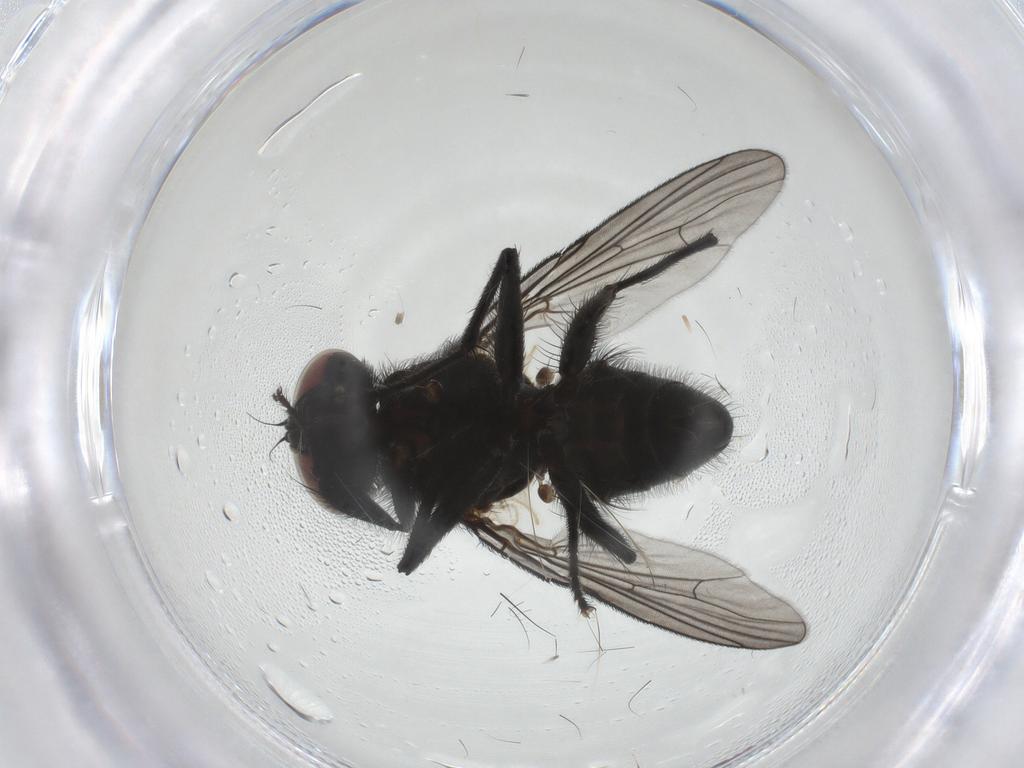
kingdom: Animalia
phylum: Arthropoda
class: Insecta
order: Diptera
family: Muscidae
